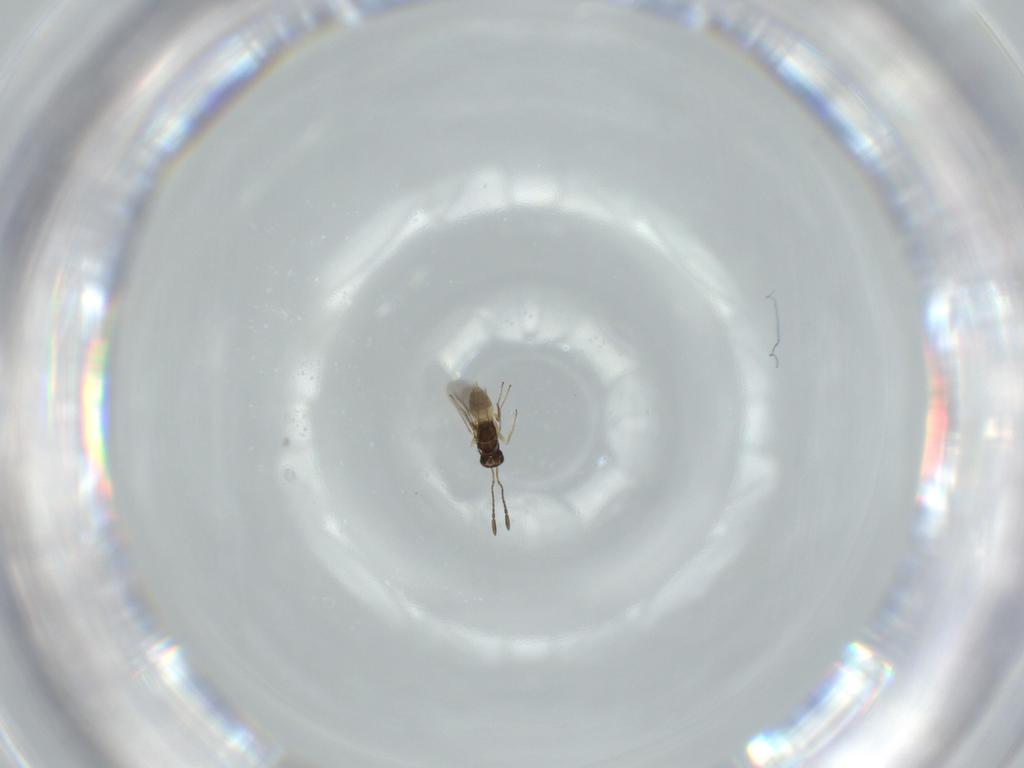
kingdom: Animalia
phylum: Arthropoda
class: Insecta
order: Hymenoptera
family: Mymaridae
